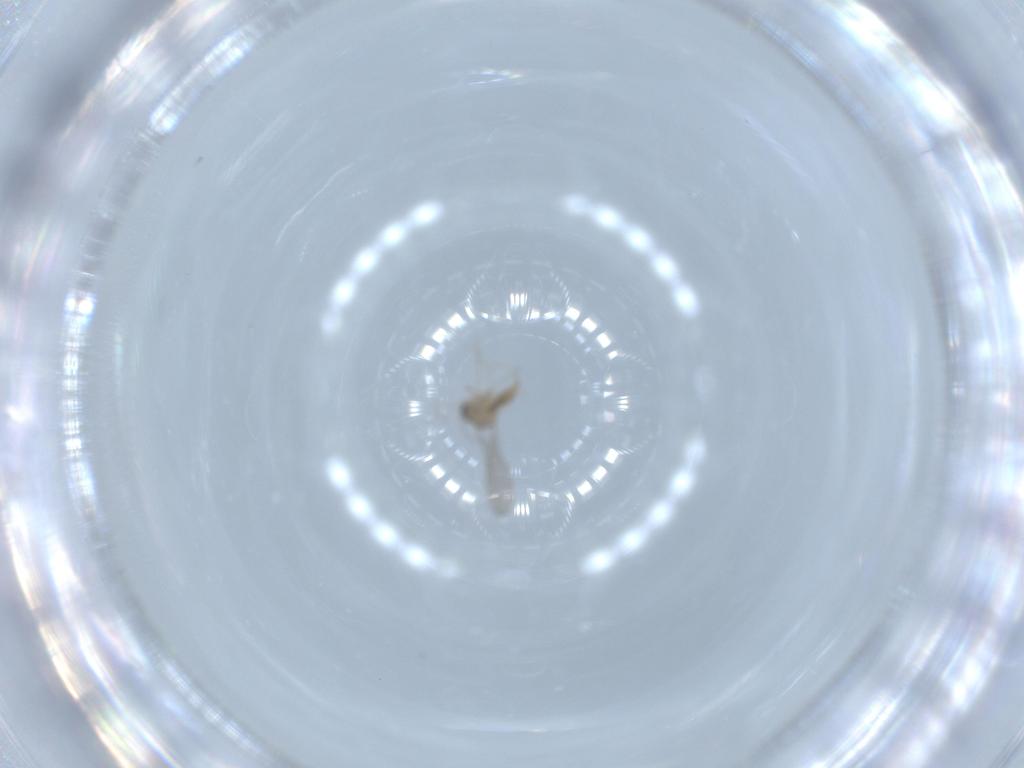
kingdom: Animalia
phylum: Arthropoda
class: Insecta
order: Diptera
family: Cecidomyiidae
